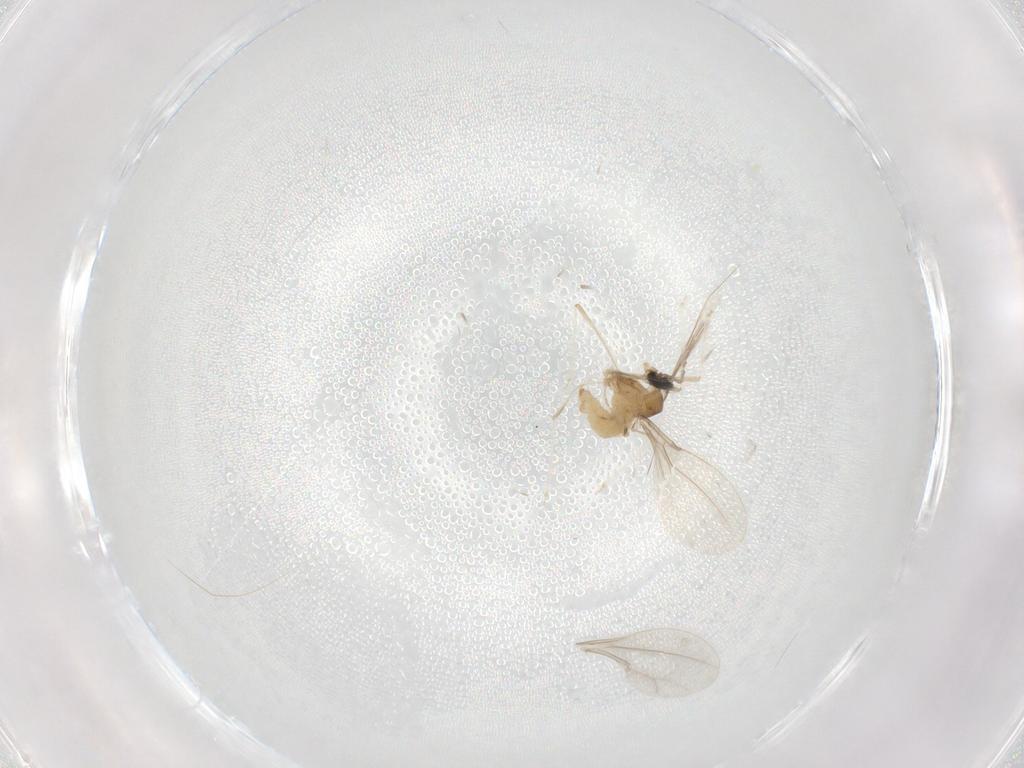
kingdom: Animalia
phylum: Arthropoda
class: Insecta
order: Diptera
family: Cecidomyiidae
